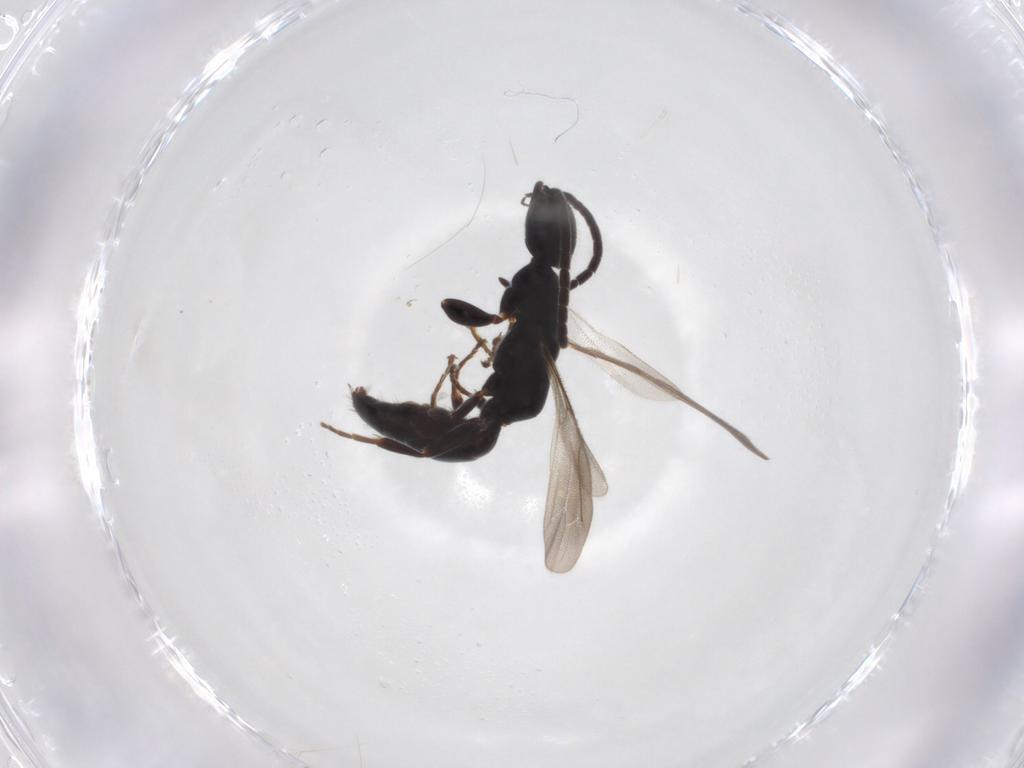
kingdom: Animalia
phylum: Arthropoda
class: Insecta
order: Hymenoptera
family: Bethylidae
